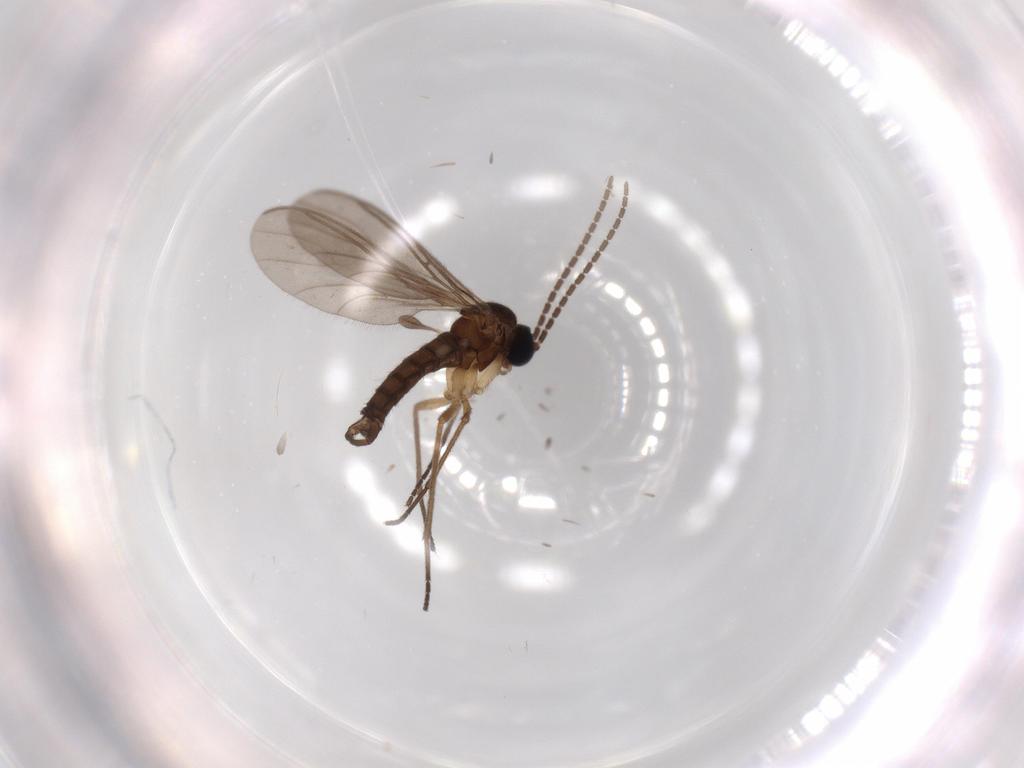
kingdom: Animalia
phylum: Arthropoda
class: Insecta
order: Diptera
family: Sciaridae
